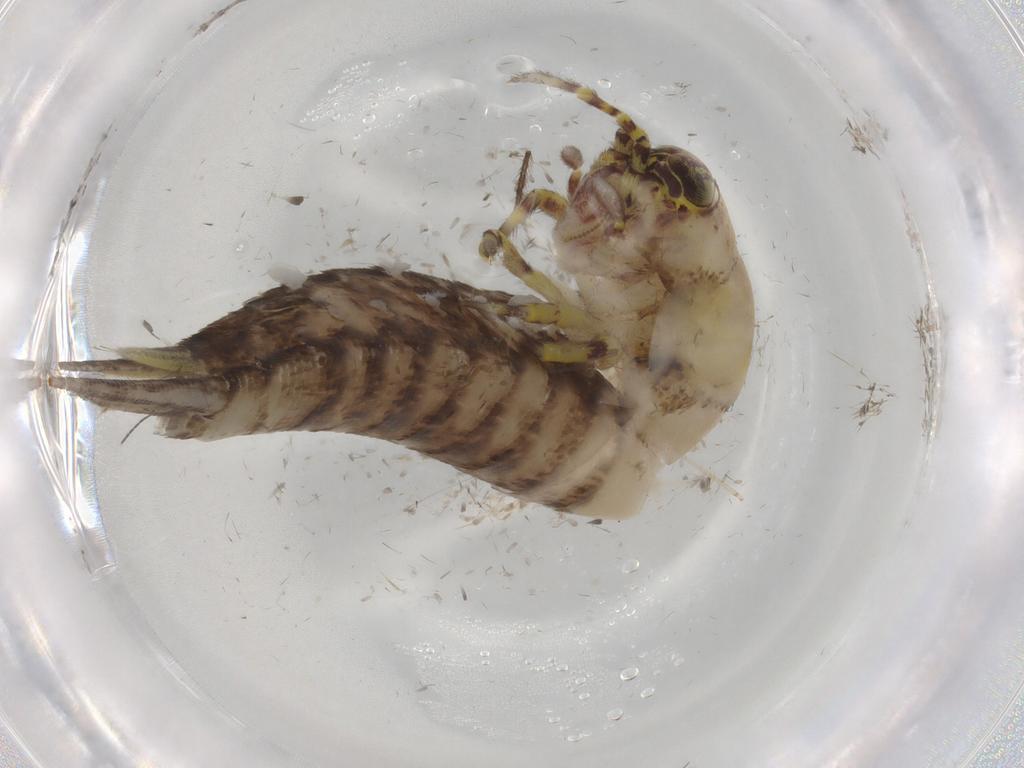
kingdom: Animalia
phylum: Arthropoda
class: Insecta
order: Archaeognatha
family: Machilidae
